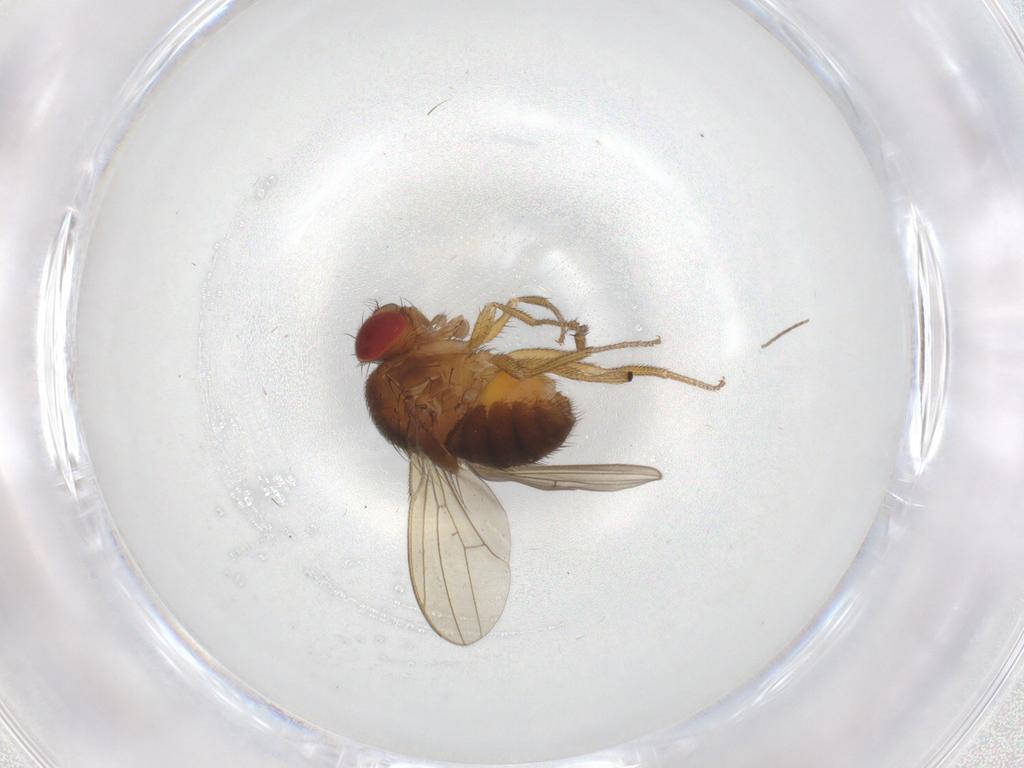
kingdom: Animalia
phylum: Arthropoda
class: Insecta
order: Diptera
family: Drosophilidae
